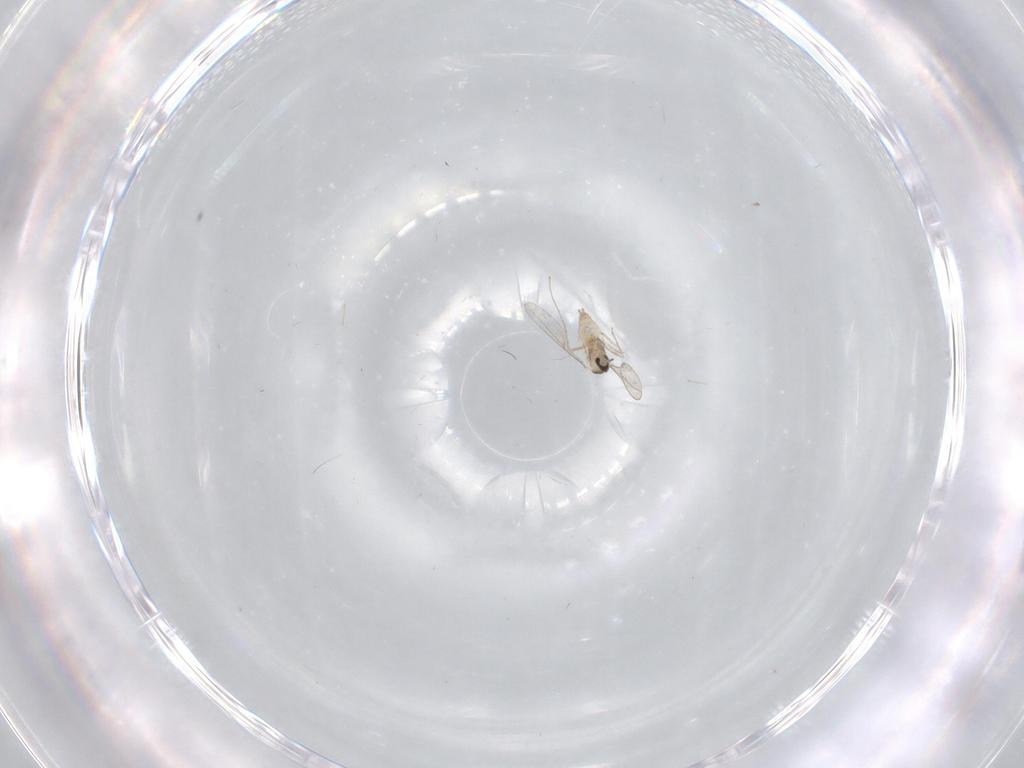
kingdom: Animalia
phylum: Arthropoda
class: Insecta
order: Diptera
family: Cecidomyiidae
